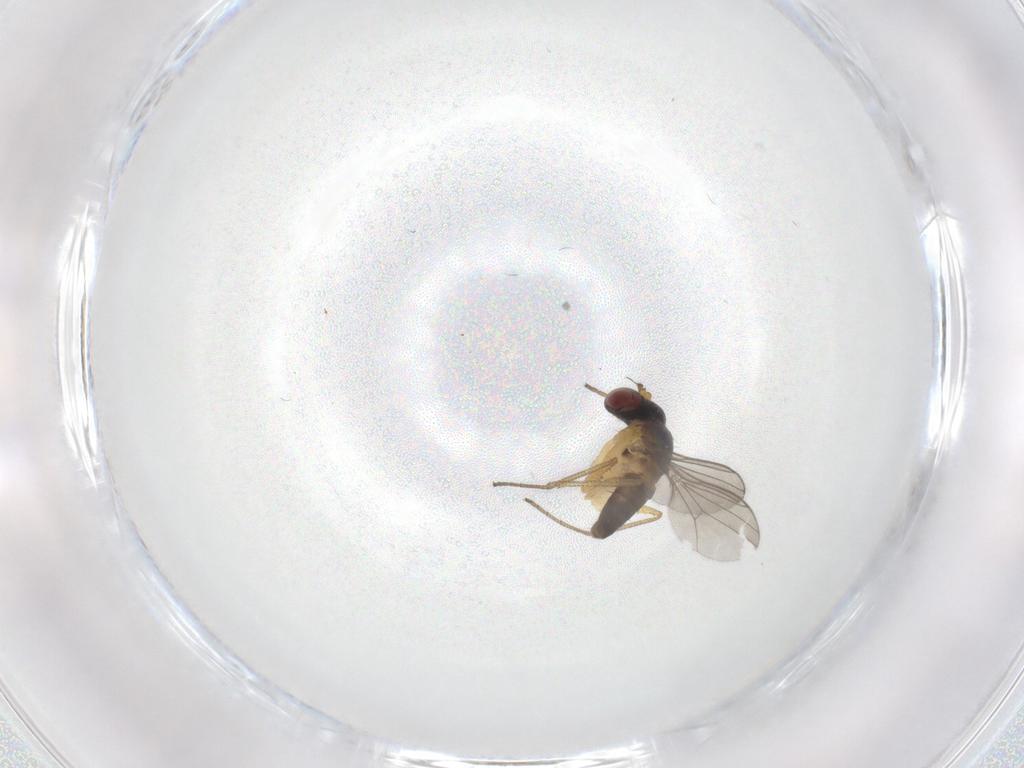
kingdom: Animalia
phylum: Arthropoda
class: Insecta
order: Diptera
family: Dolichopodidae
